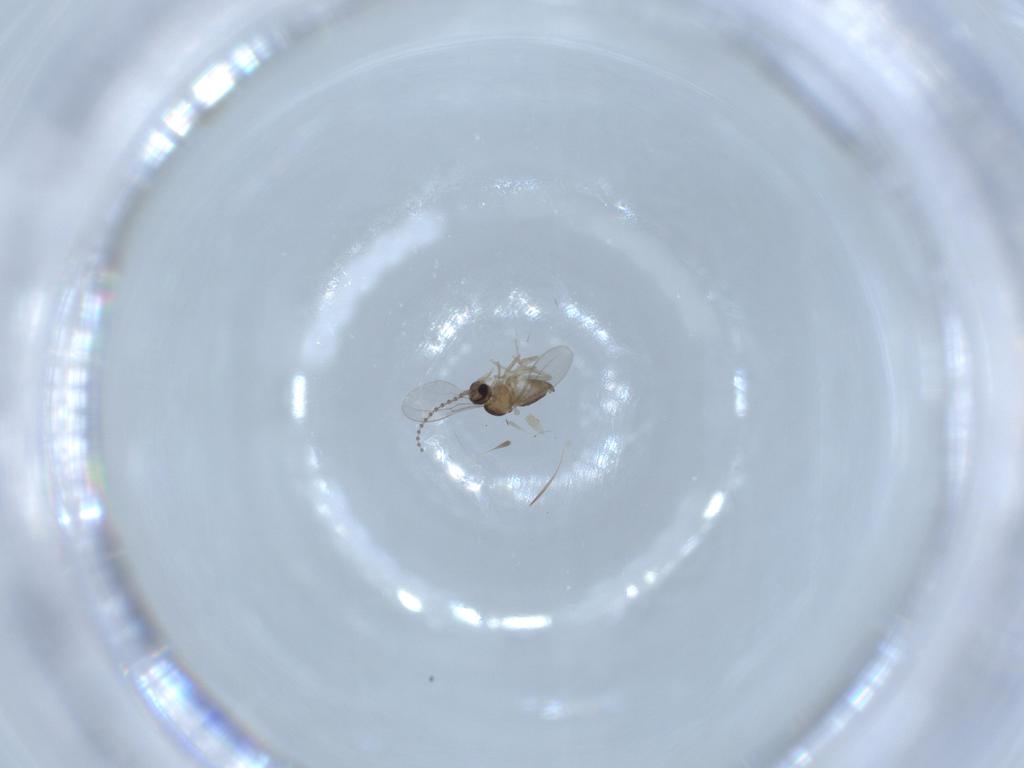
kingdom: Animalia
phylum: Arthropoda
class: Insecta
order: Diptera
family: Cecidomyiidae
